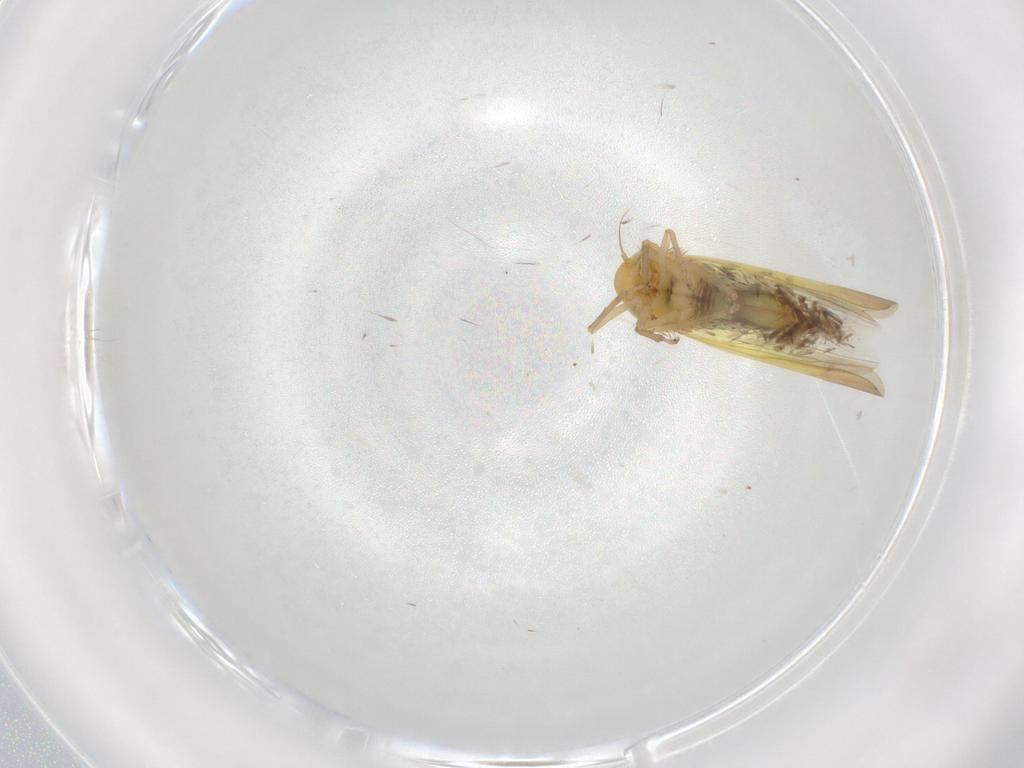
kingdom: Animalia
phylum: Arthropoda
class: Insecta
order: Hemiptera
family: Cicadellidae
